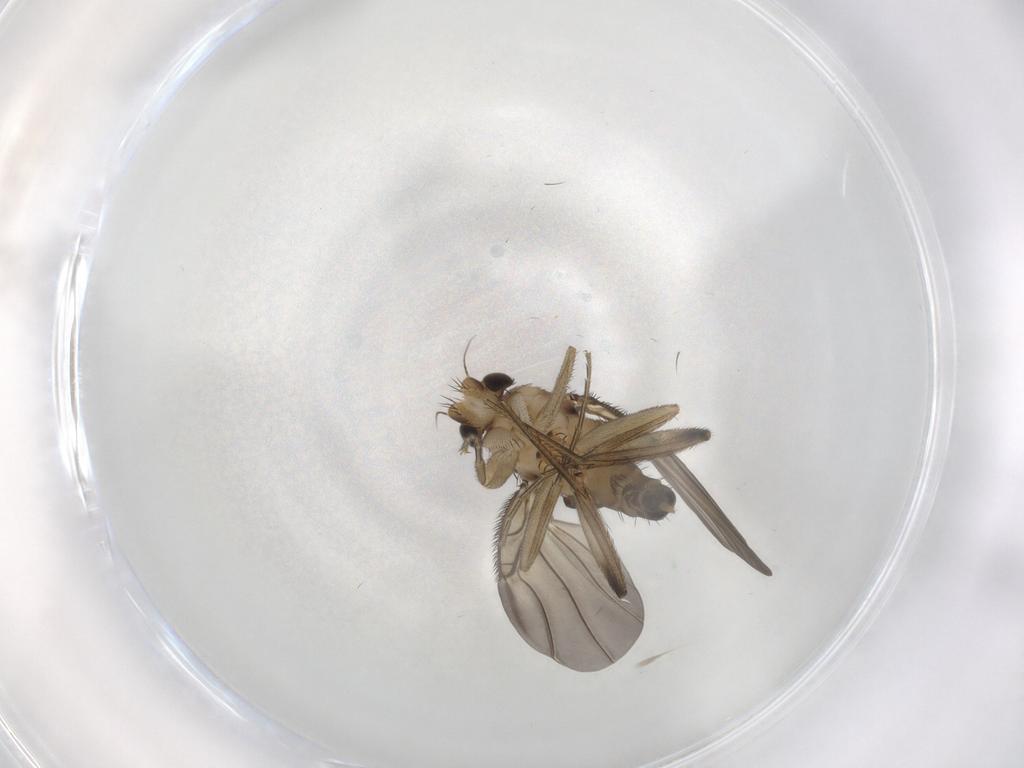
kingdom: Animalia
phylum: Arthropoda
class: Insecta
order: Diptera
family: Phoridae
